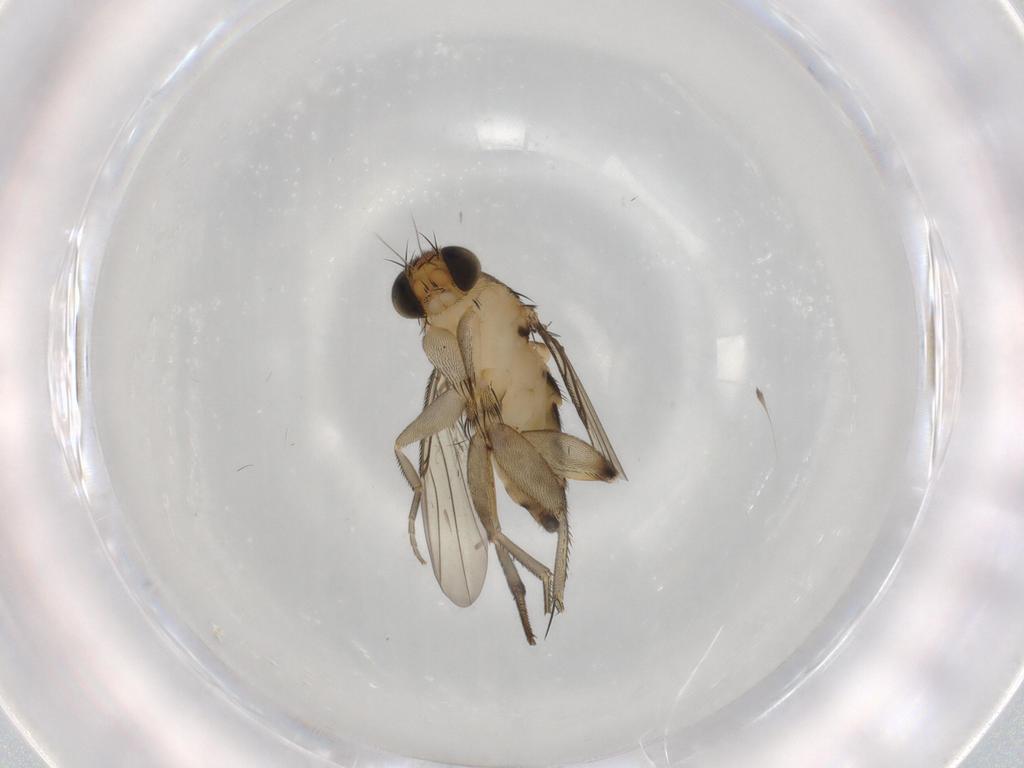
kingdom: Animalia
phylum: Arthropoda
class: Insecta
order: Diptera
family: Phoridae
